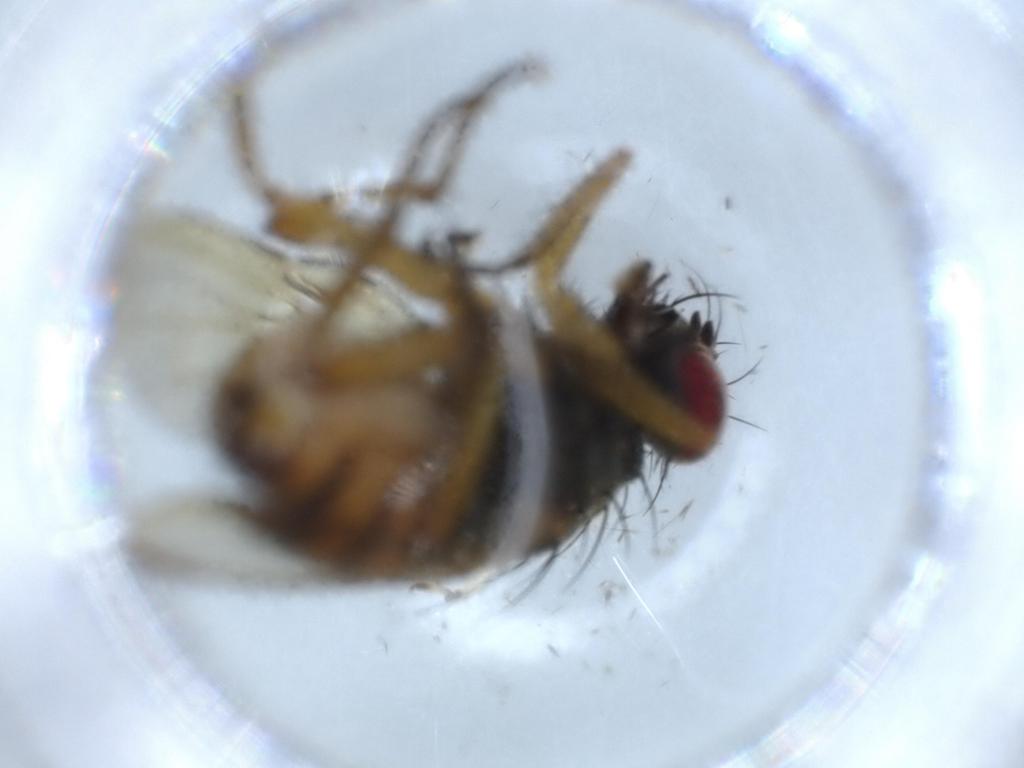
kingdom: Animalia
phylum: Arthropoda
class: Insecta
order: Diptera
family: Muscidae
